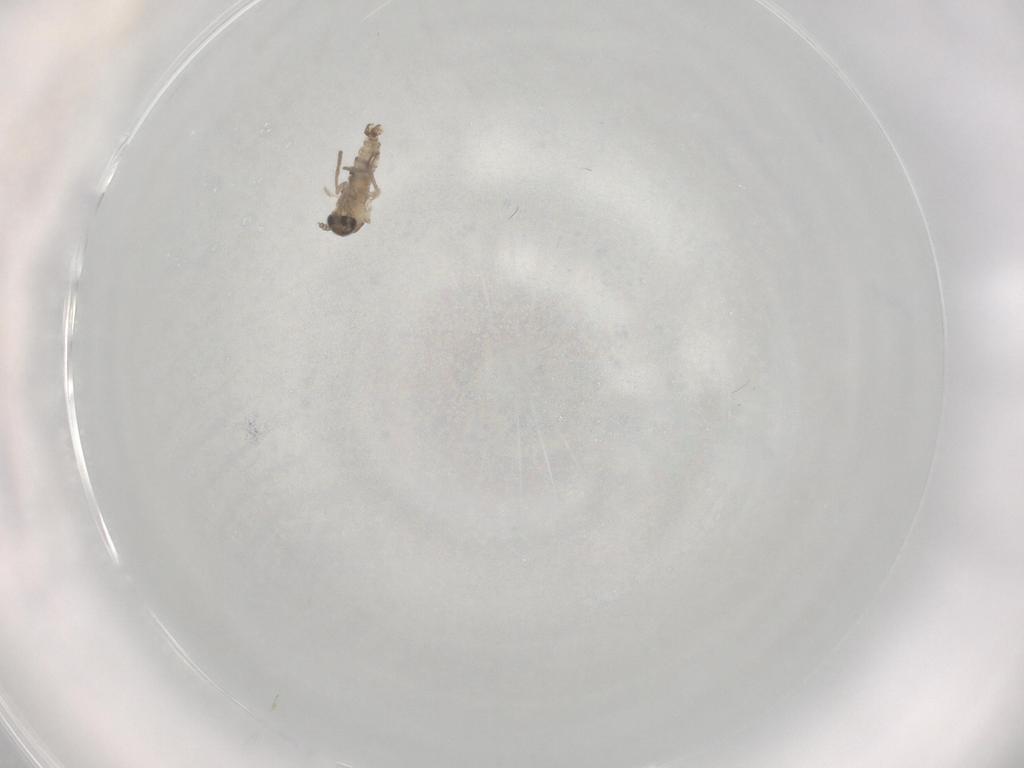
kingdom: Animalia
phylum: Arthropoda
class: Insecta
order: Diptera
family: Psychodidae
